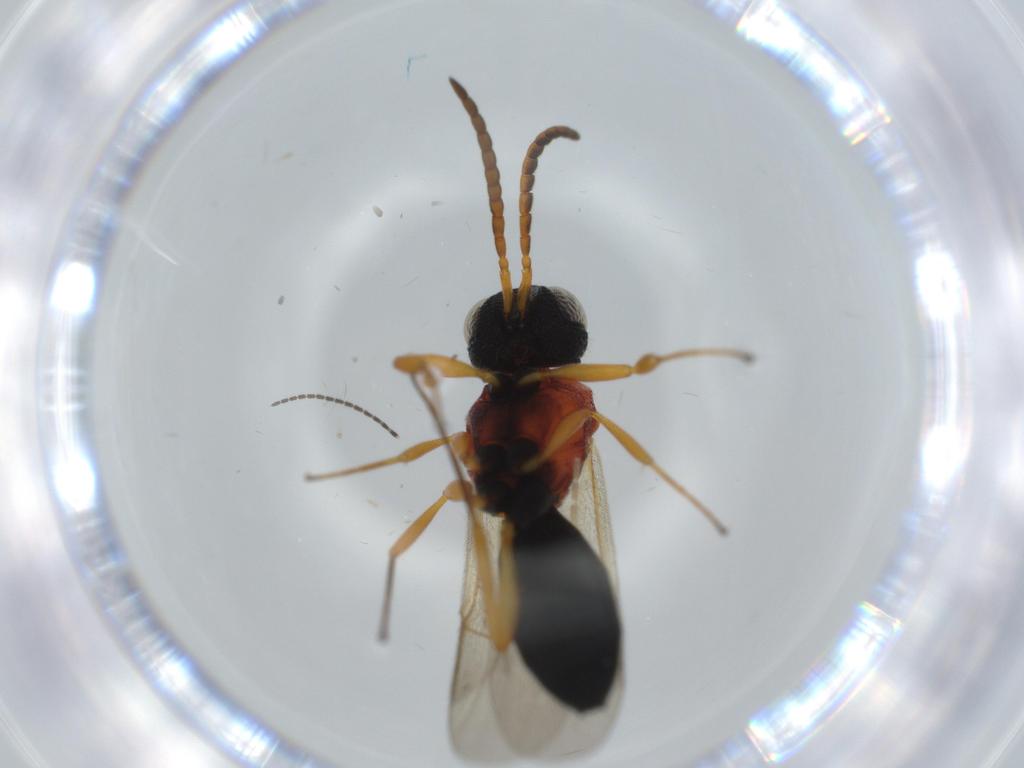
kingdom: Animalia
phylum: Arthropoda
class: Insecta
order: Hymenoptera
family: Scelionidae
